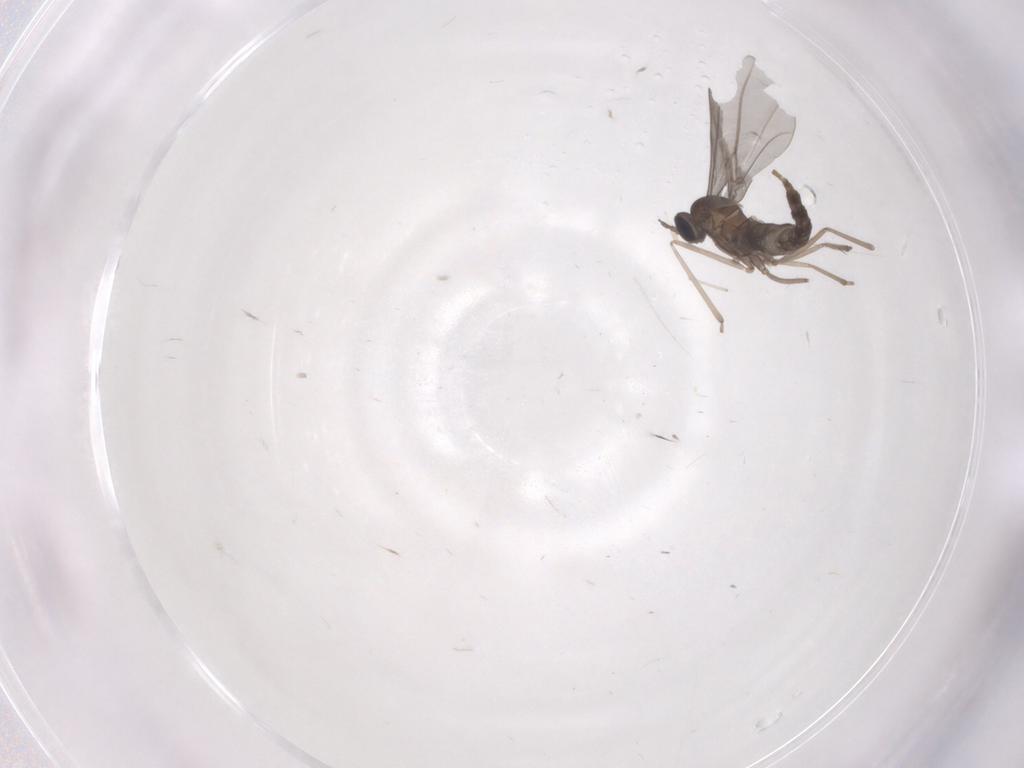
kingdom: Animalia
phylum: Arthropoda
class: Insecta
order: Diptera
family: Cecidomyiidae
